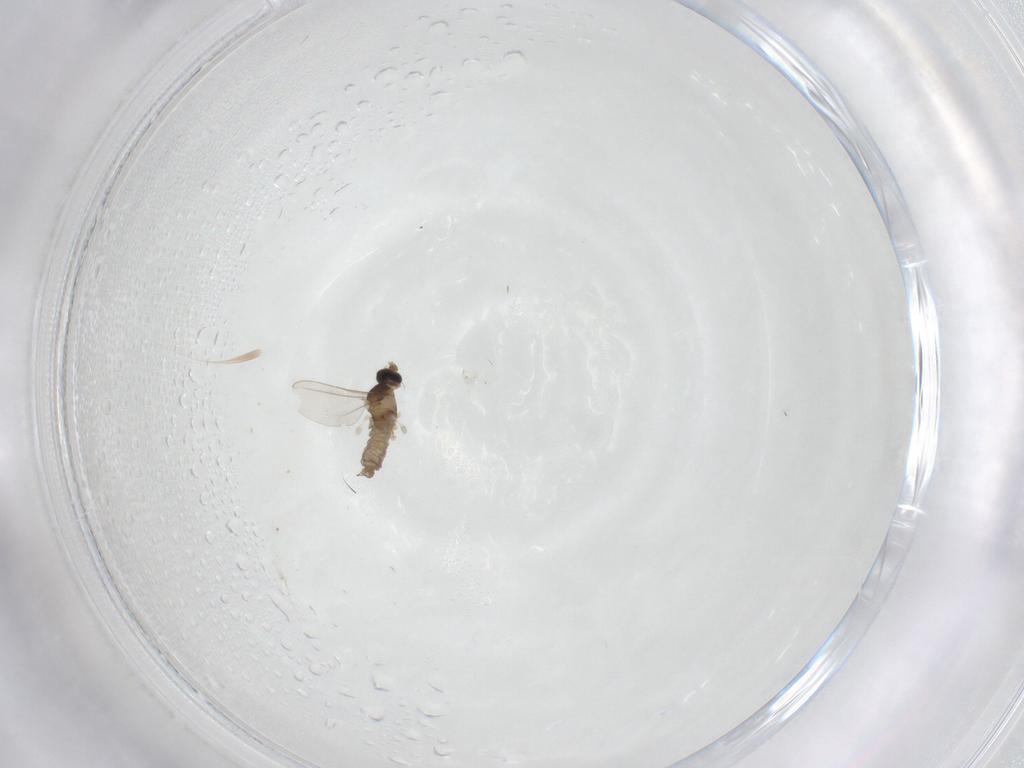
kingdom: Animalia
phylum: Arthropoda
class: Insecta
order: Diptera
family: Cecidomyiidae
